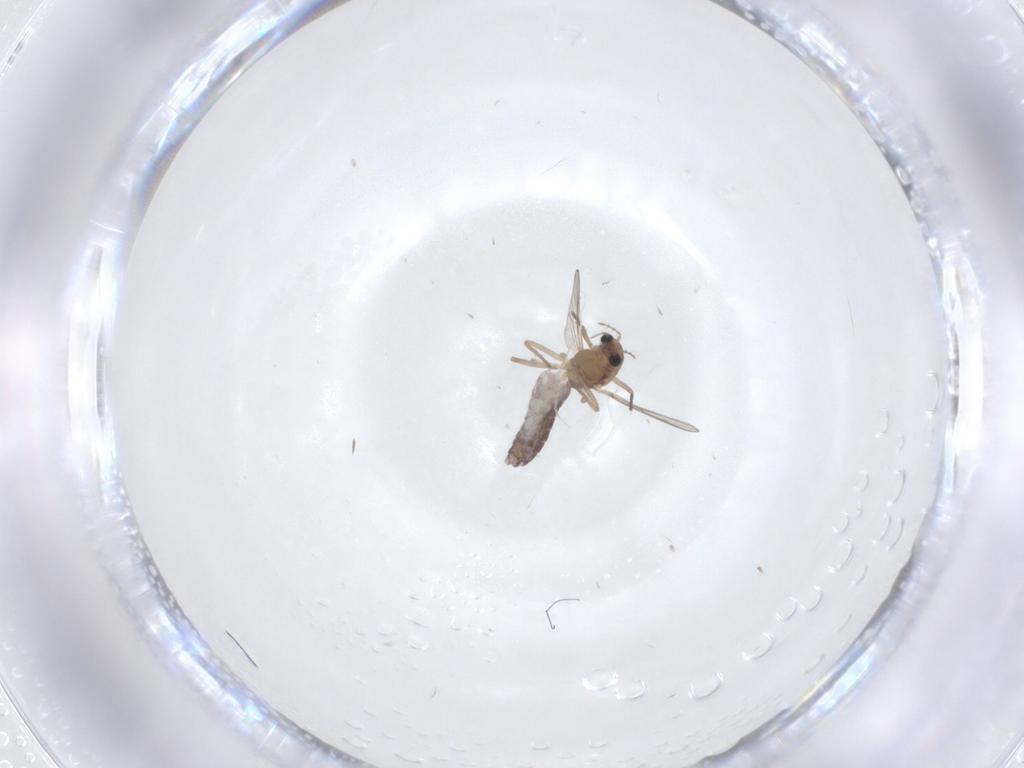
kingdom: Animalia
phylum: Arthropoda
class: Insecta
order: Diptera
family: Chironomidae
